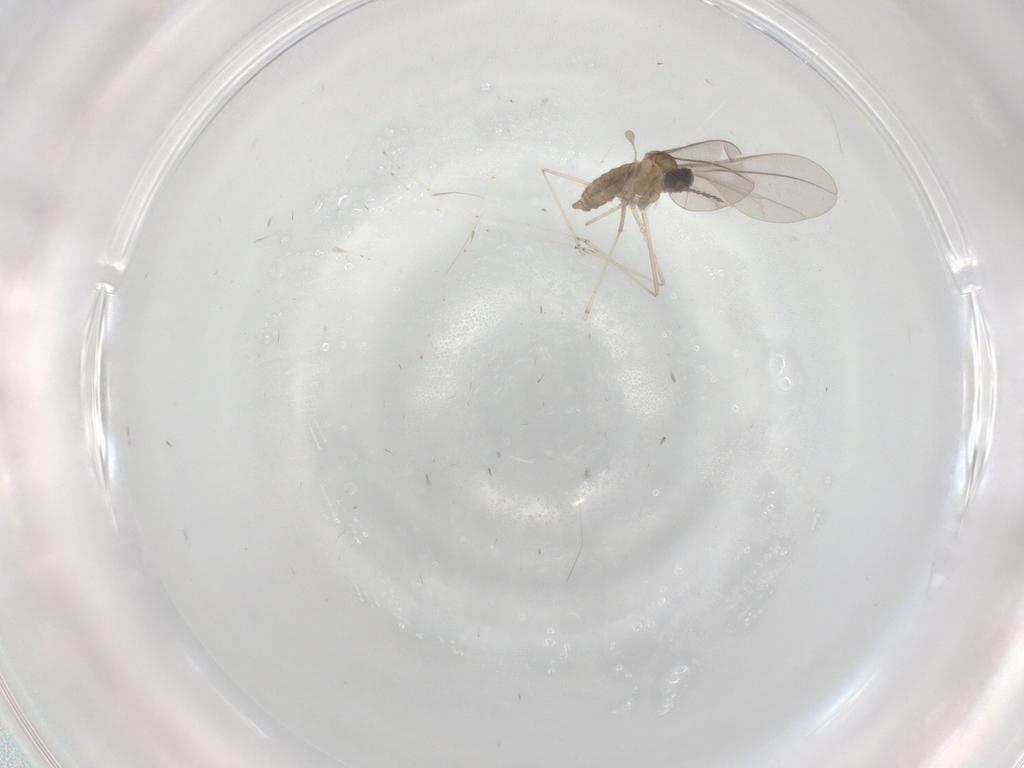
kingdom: Animalia
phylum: Arthropoda
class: Insecta
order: Diptera
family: Cecidomyiidae
